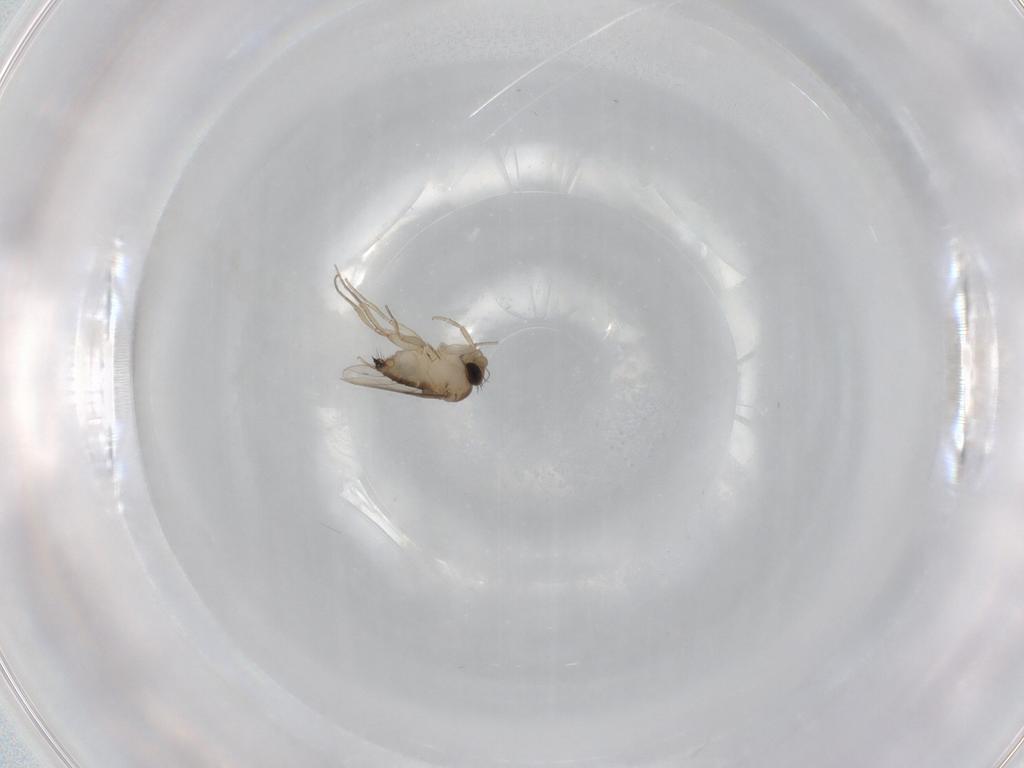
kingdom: Animalia
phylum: Arthropoda
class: Insecta
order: Diptera
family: Phoridae
